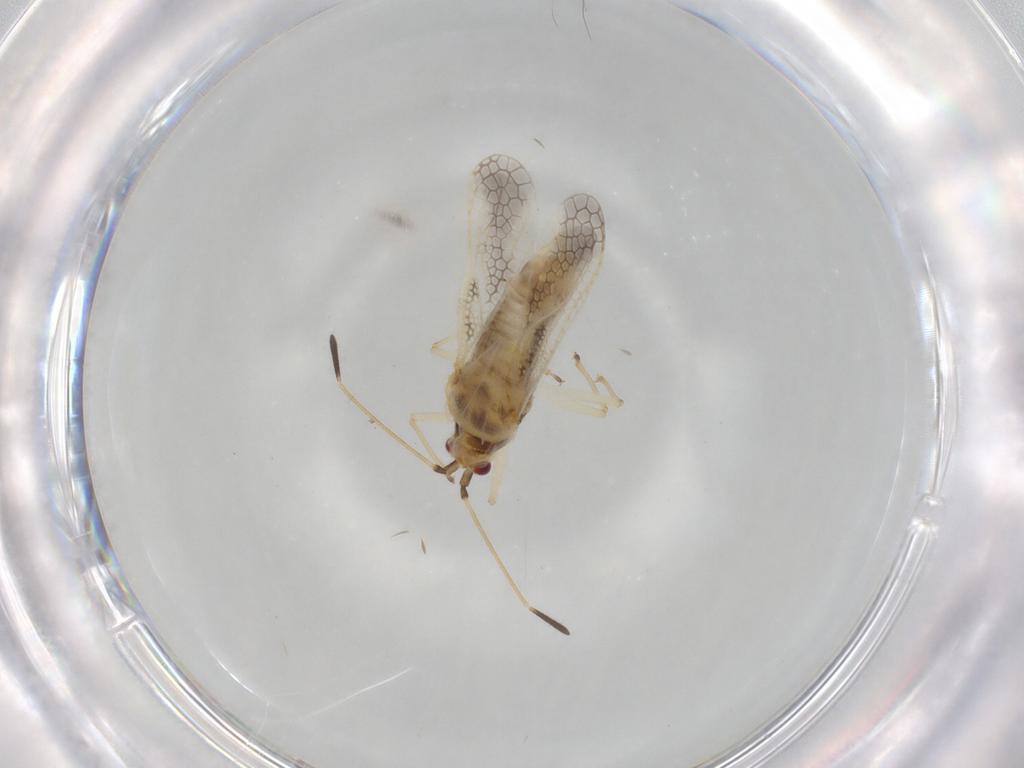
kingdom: Animalia
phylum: Arthropoda
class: Insecta
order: Hemiptera
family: Tingidae
